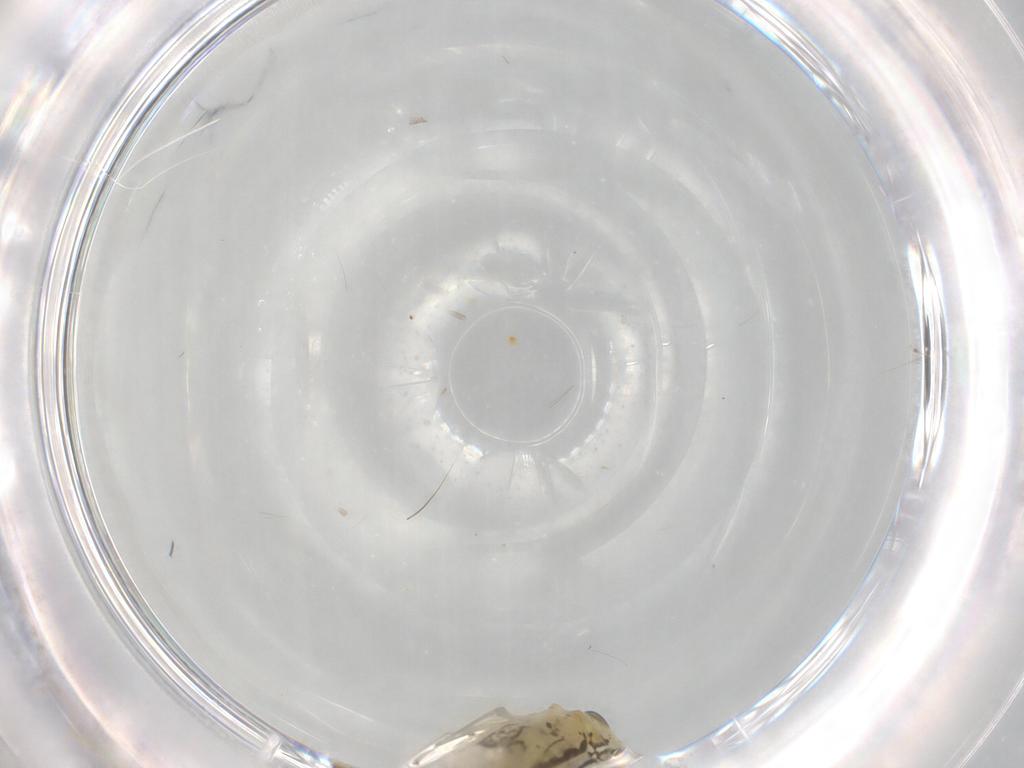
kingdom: Animalia
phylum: Arthropoda
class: Insecta
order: Hemiptera
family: Cicadellidae
